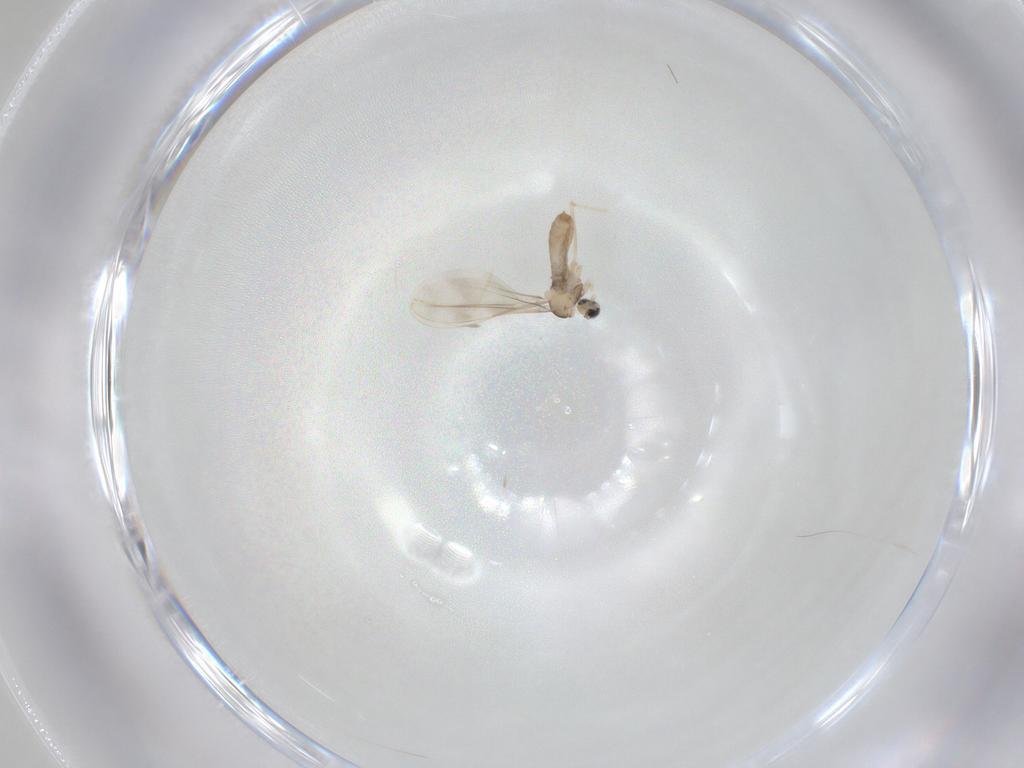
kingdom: Animalia
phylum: Arthropoda
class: Insecta
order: Diptera
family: Cecidomyiidae
